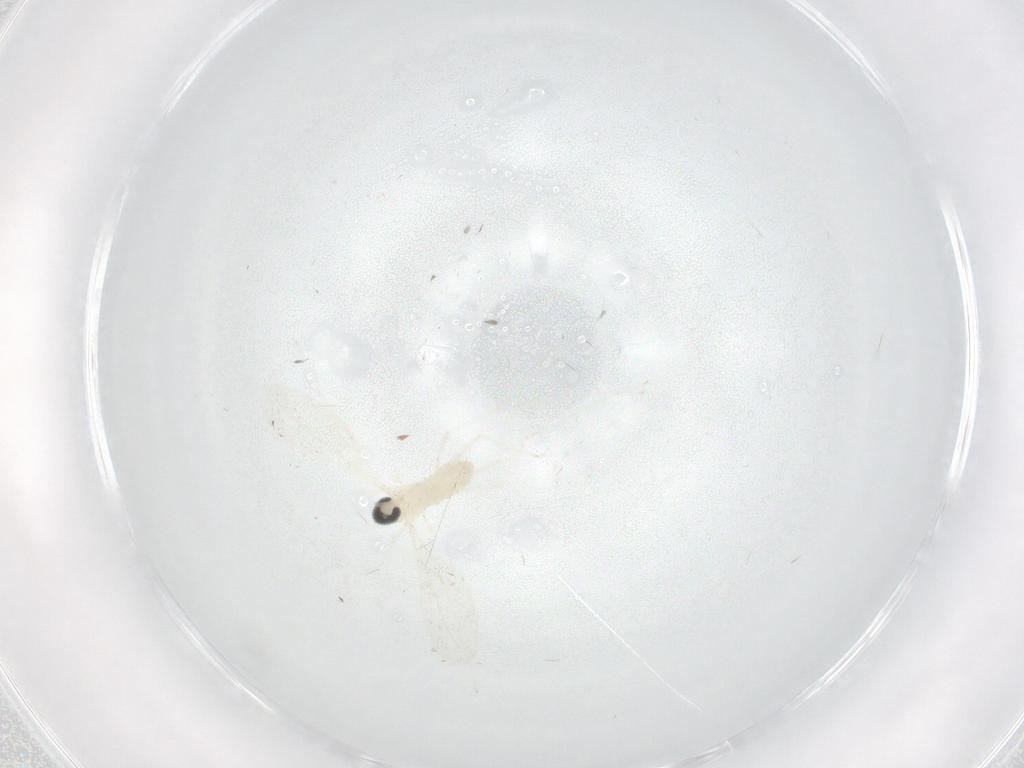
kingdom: Animalia
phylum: Arthropoda
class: Insecta
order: Diptera
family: Cecidomyiidae
